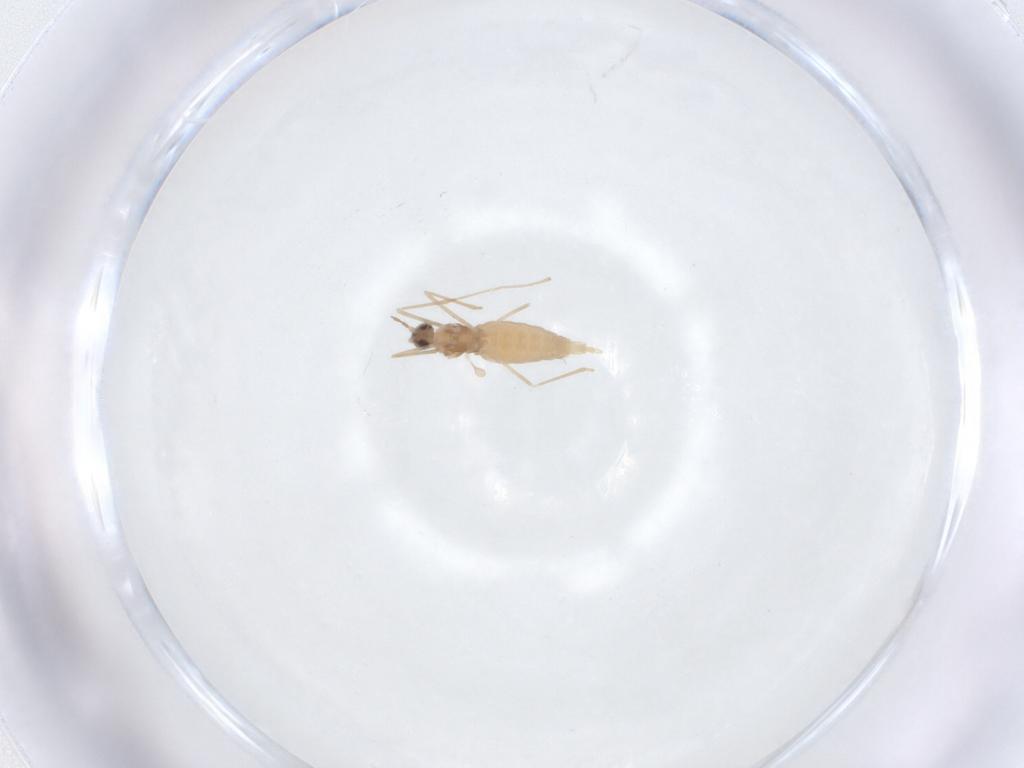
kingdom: Animalia
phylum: Arthropoda
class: Insecta
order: Diptera
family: Cecidomyiidae
